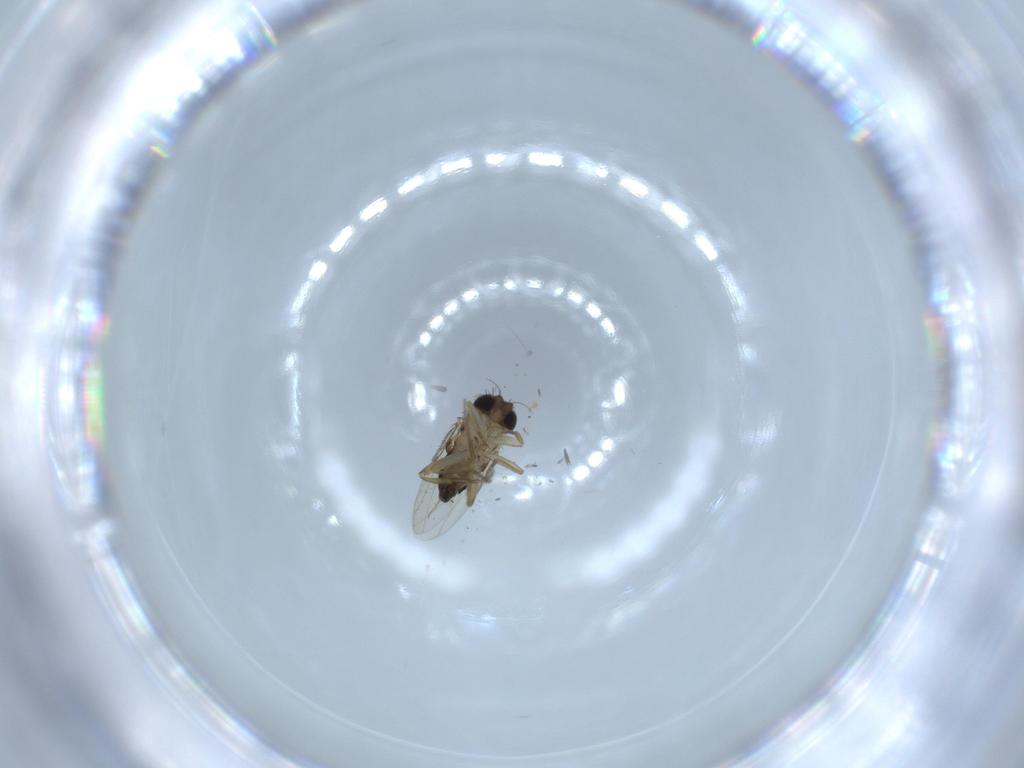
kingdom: Animalia
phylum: Arthropoda
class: Insecta
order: Diptera
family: Phoridae
